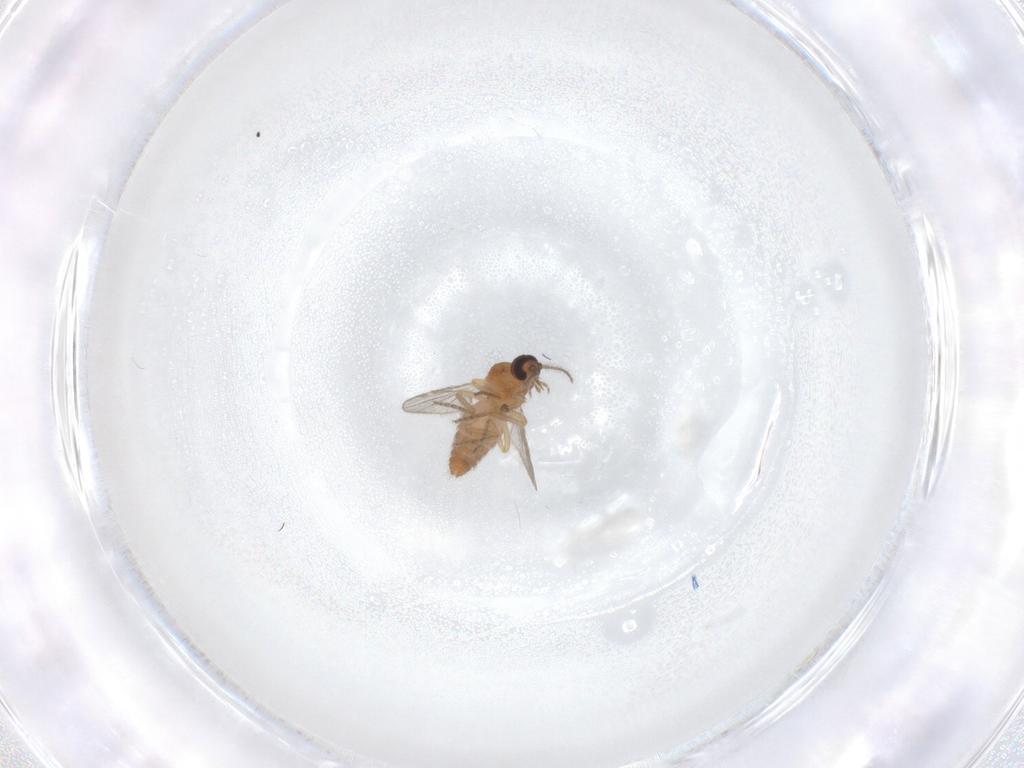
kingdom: Animalia
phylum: Arthropoda
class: Insecta
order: Diptera
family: Ceratopogonidae
